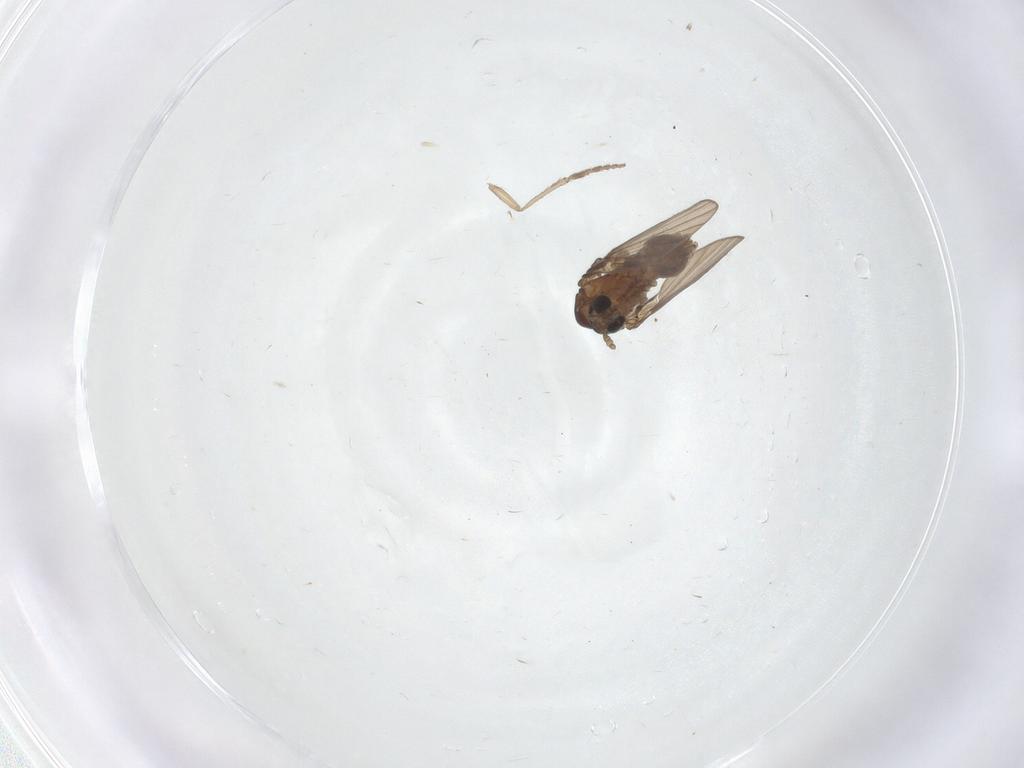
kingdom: Animalia
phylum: Arthropoda
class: Insecta
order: Diptera
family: Psychodidae
